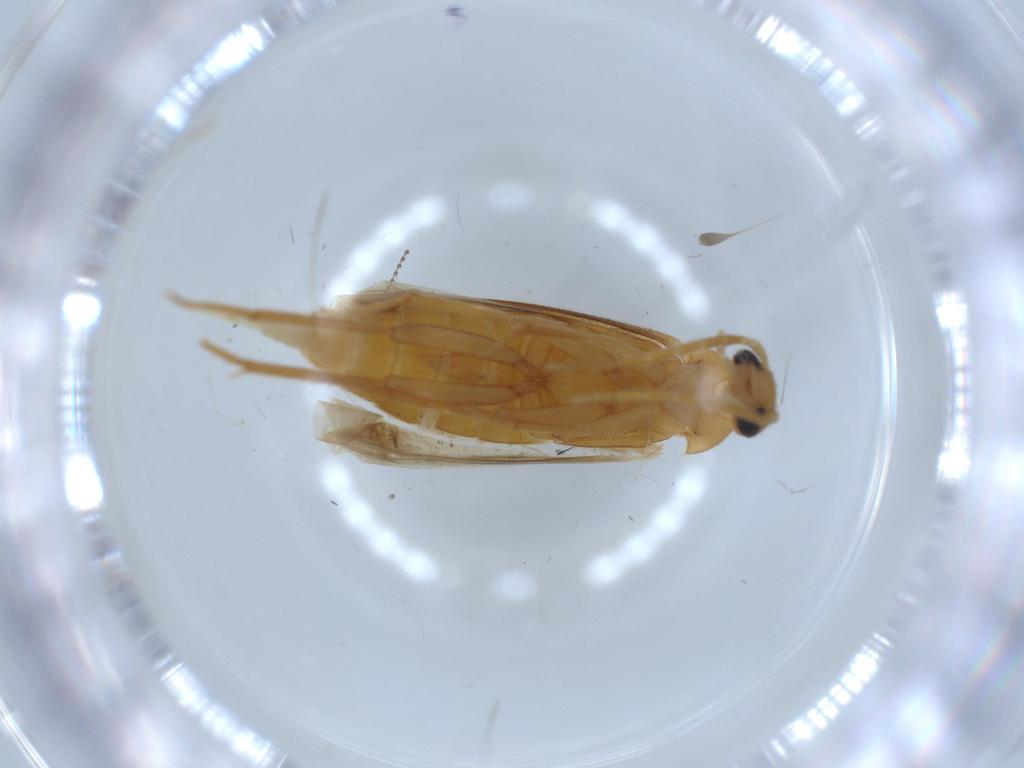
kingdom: Animalia
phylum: Arthropoda
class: Insecta
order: Coleoptera
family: Scraptiidae
